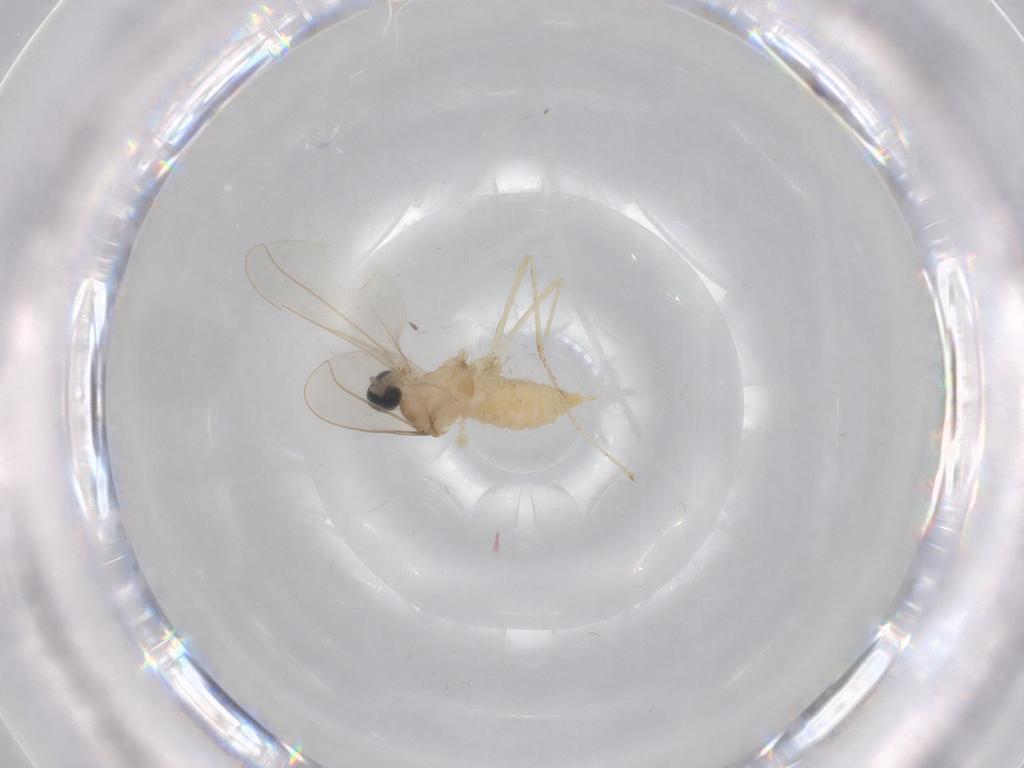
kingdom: Animalia
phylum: Arthropoda
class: Insecta
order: Diptera
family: Cecidomyiidae
